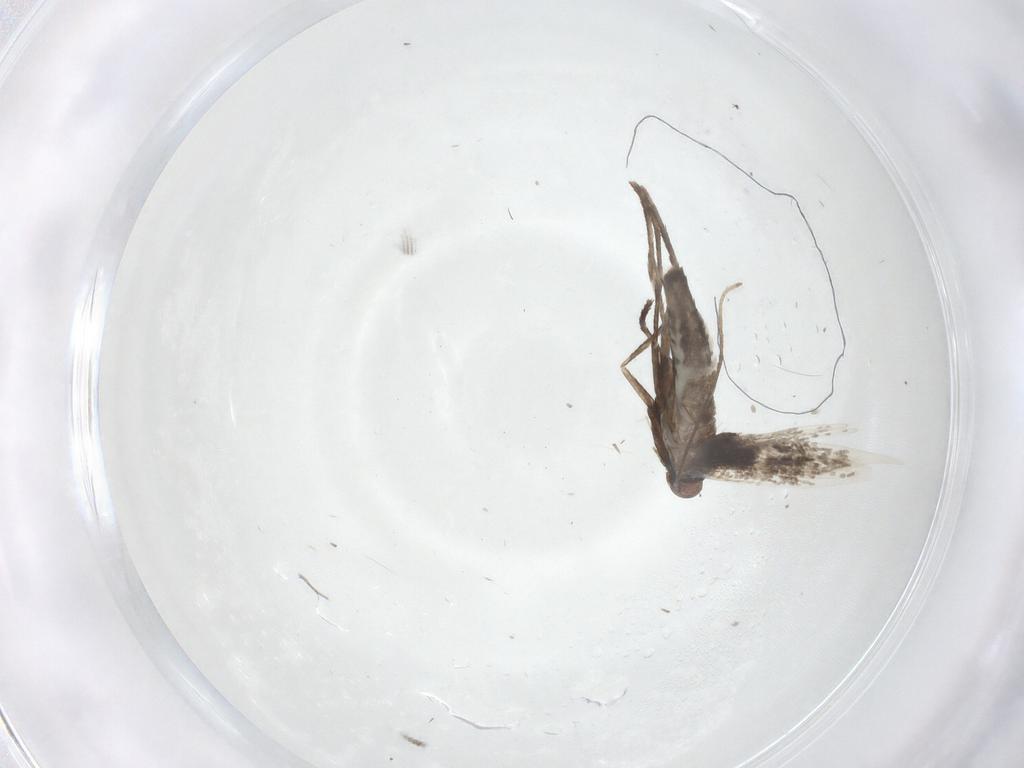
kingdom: Animalia
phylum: Arthropoda
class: Insecta
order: Lepidoptera
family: Gracillariidae
